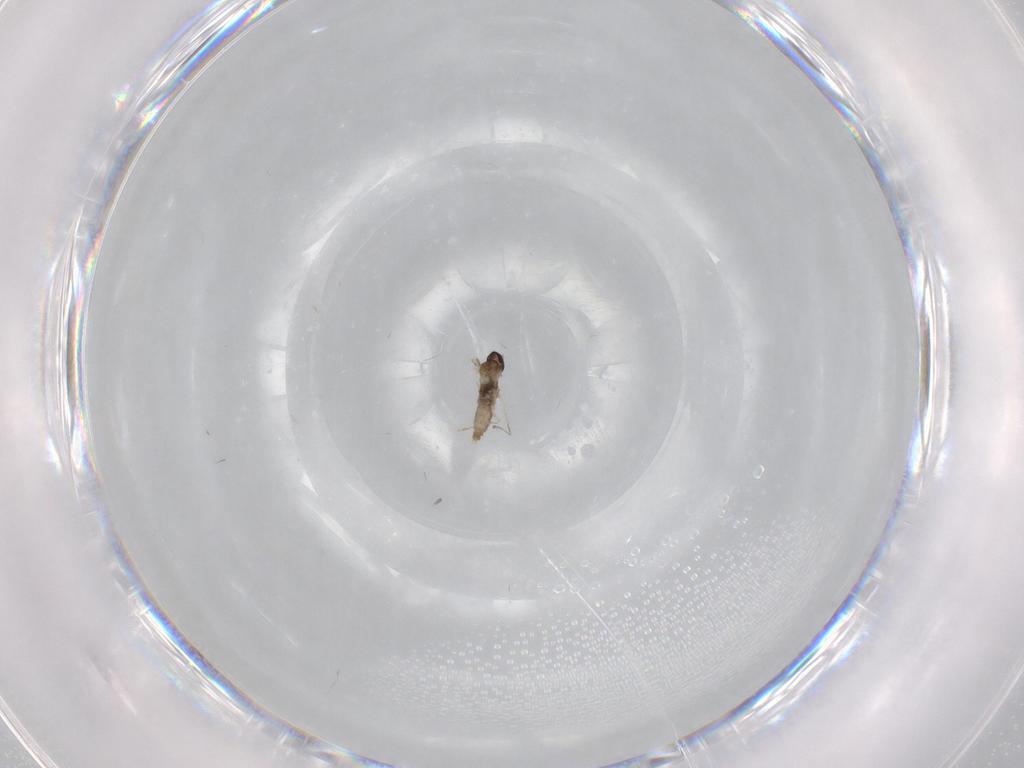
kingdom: Animalia
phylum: Arthropoda
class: Insecta
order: Diptera
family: Cecidomyiidae
